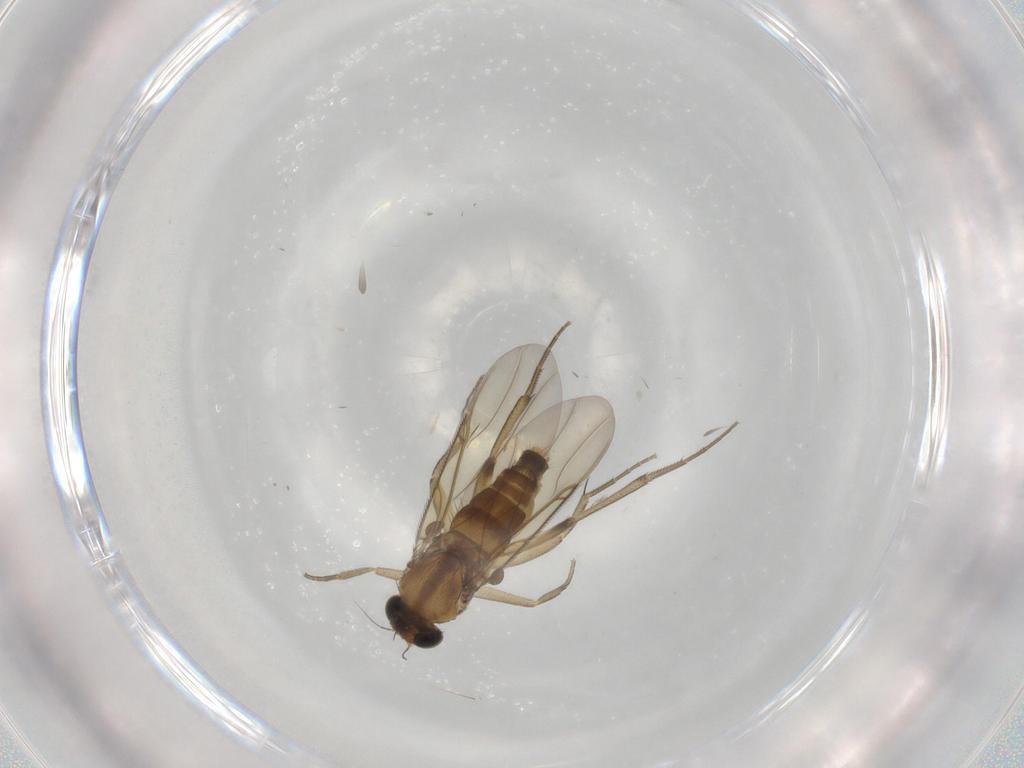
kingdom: Animalia
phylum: Arthropoda
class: Insecta
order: Diptera
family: Phoridae
